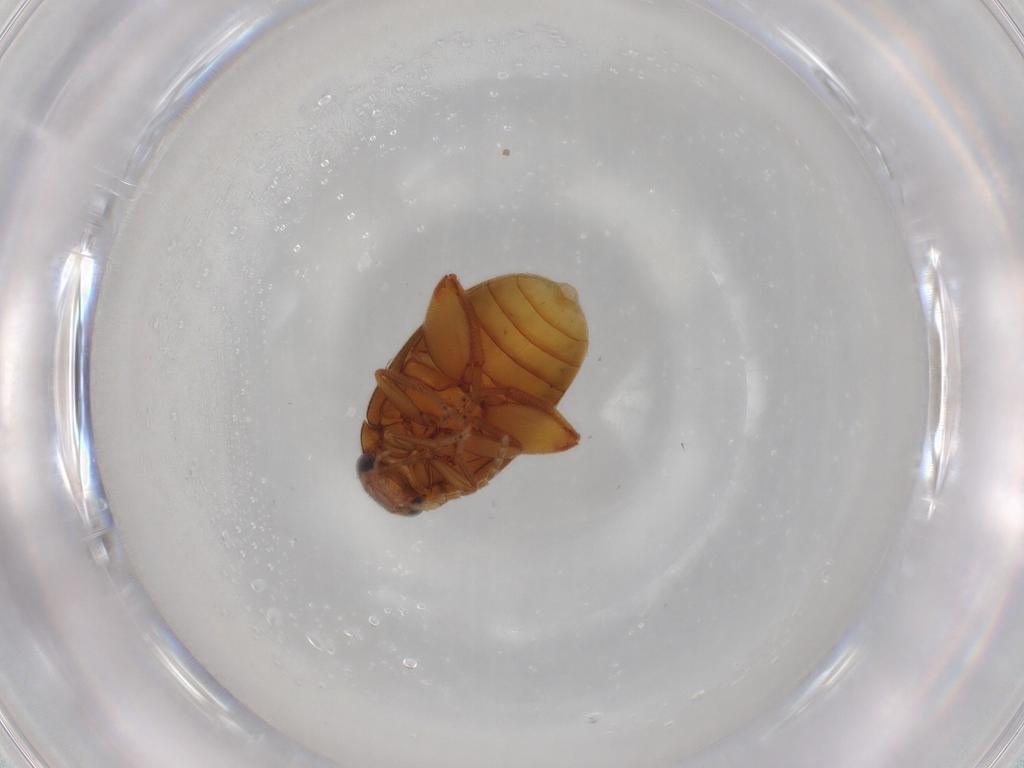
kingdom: Animalia
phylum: Arthropoda
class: Insecta
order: Coleoptera
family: Scirtidae
